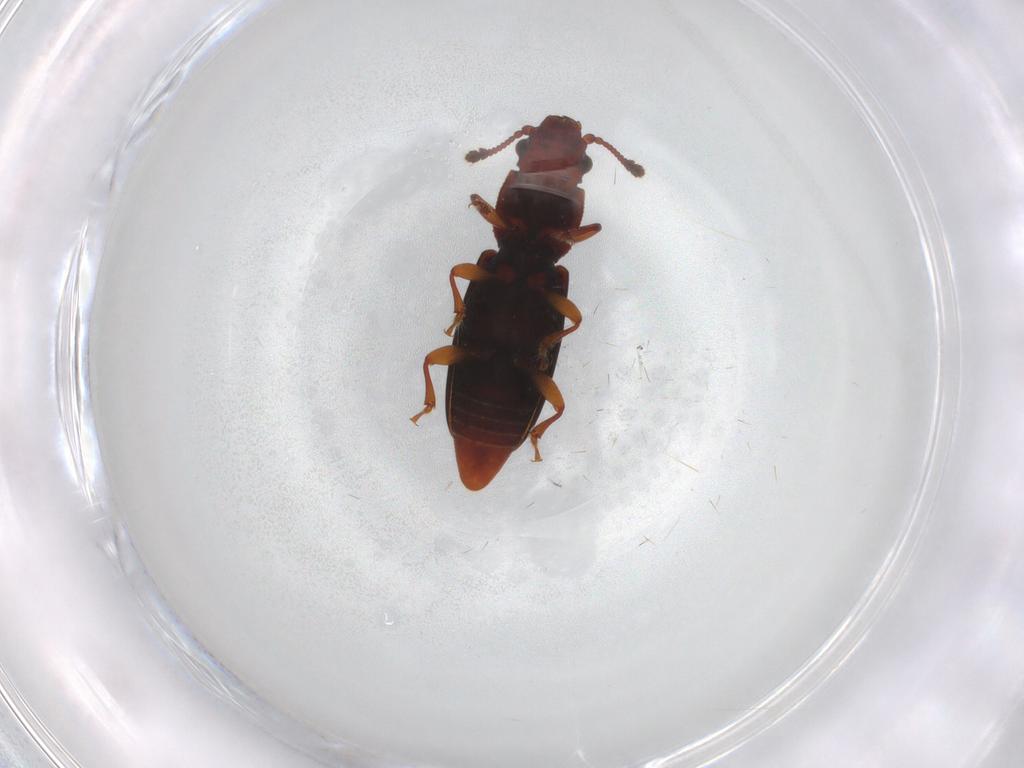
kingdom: Animalia
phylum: Arthropoda
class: Insecta
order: Coleoptera
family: Monotomidae
